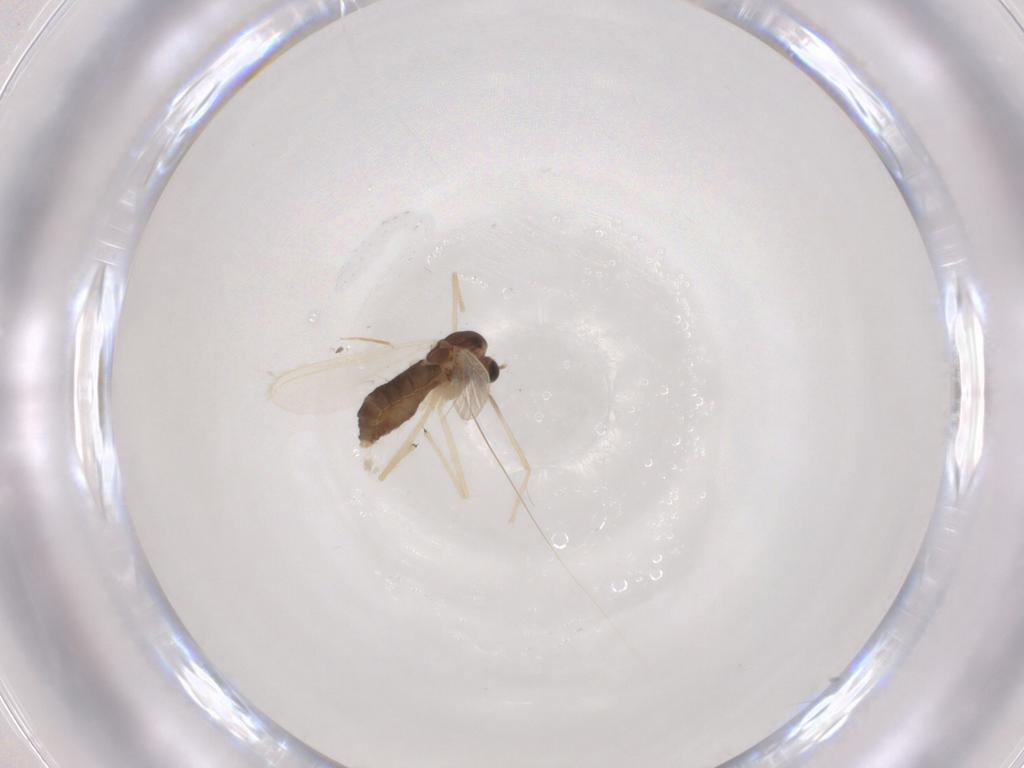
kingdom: Animalia
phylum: Arthropoda
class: Insecta
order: Diptera
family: Chironomidae
